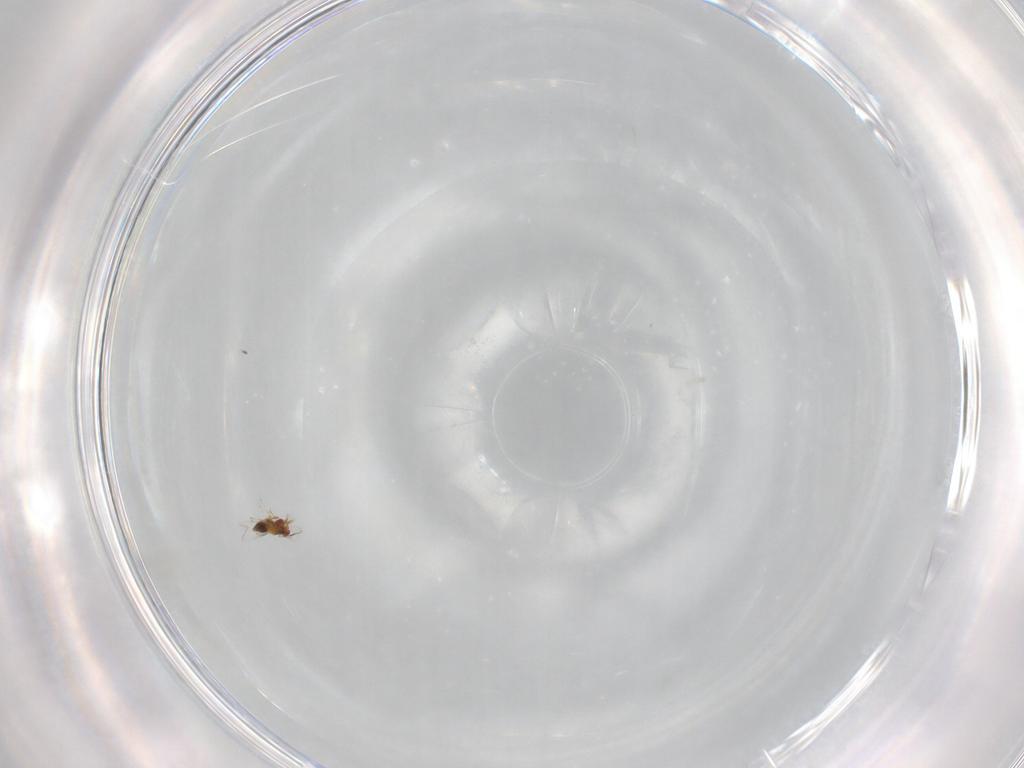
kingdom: Animalia
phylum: Arthropoda
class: Insecta
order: Hymenoptera
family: Trichogrammatidae
